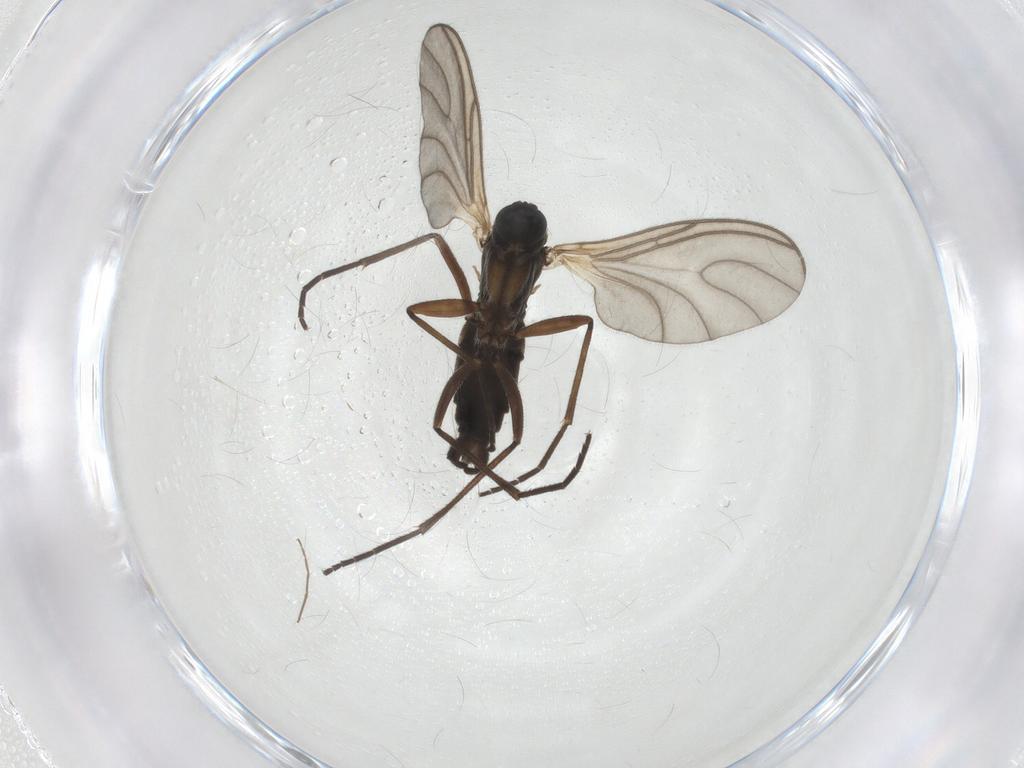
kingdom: Animalia
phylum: Arthropoda
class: Insecta
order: Diptera
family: Sciaridae
